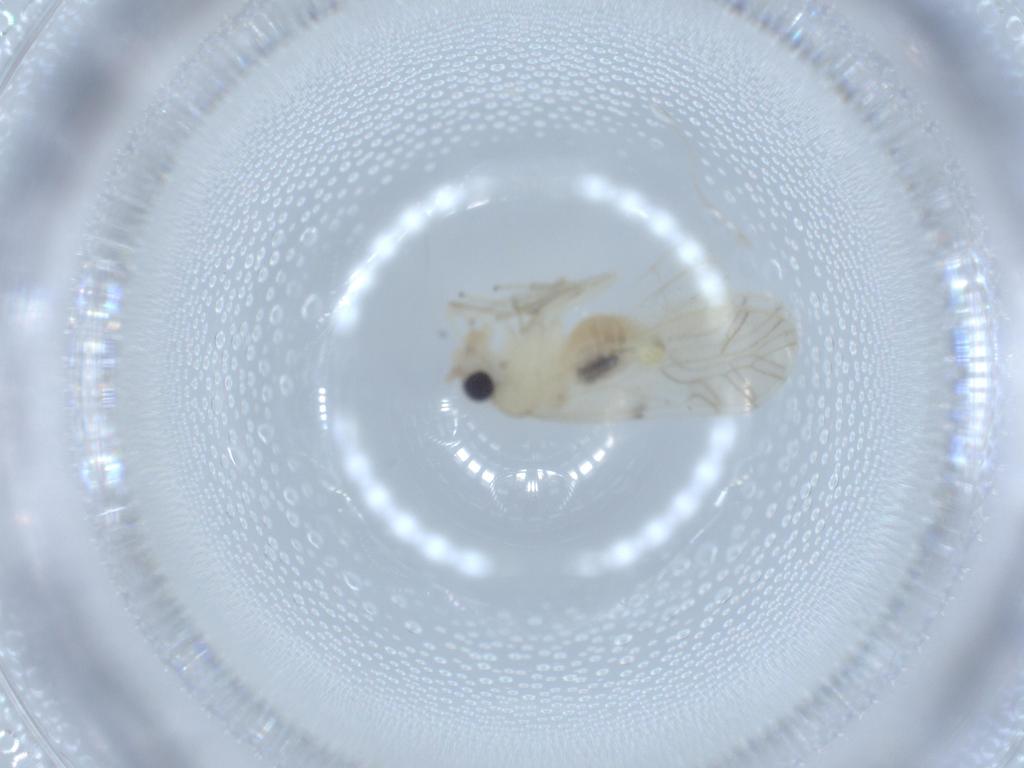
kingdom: Animalia
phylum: Arthropoda
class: Insecta
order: Psocodea
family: Caeciliusidae
